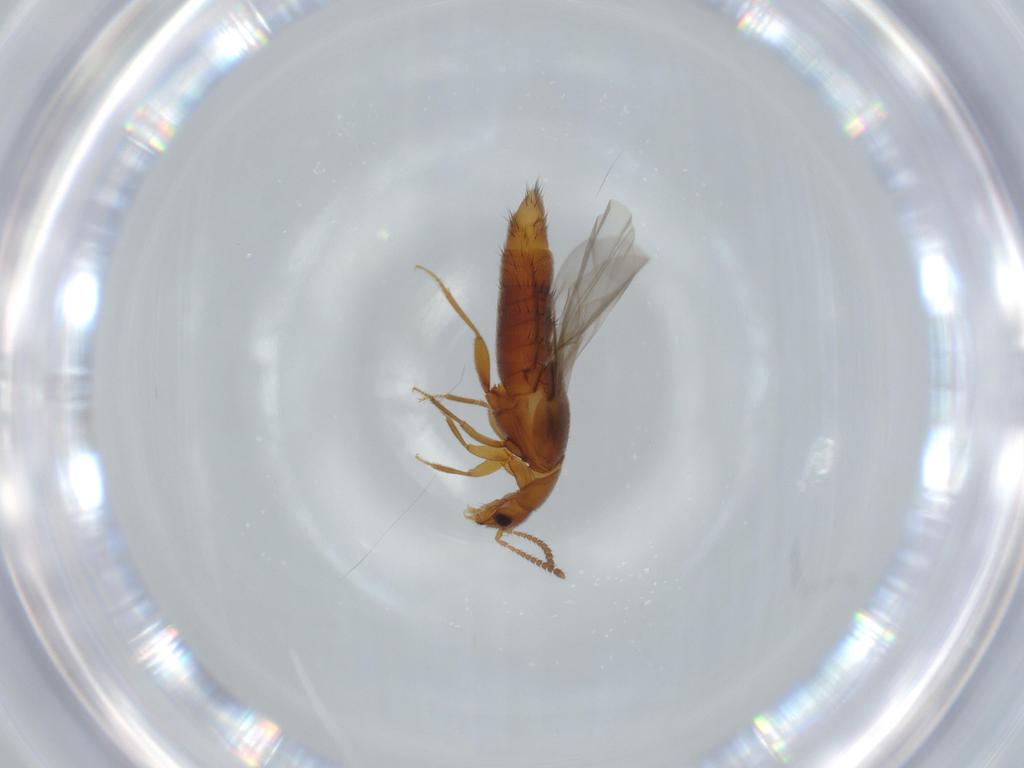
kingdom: Animalia
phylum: Arthropoda
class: Insecta
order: Coleoptera
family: Staphylinidae
